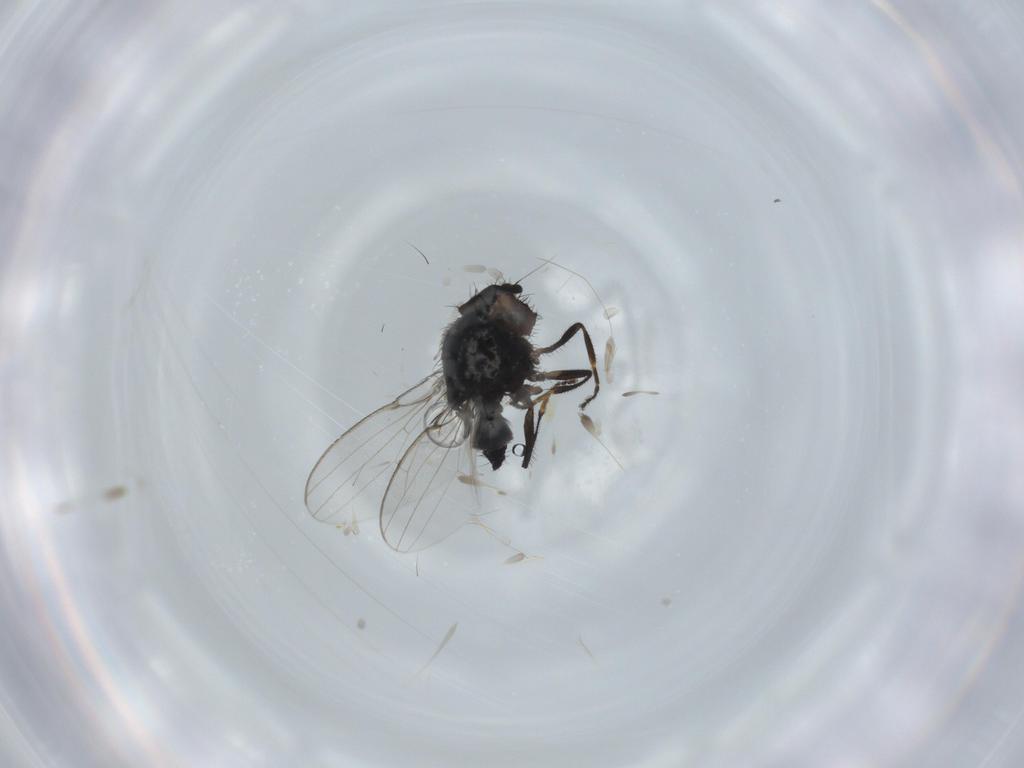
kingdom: Animalia
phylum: Arthropoda
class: Insecta
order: Diptera
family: Milichiidae
